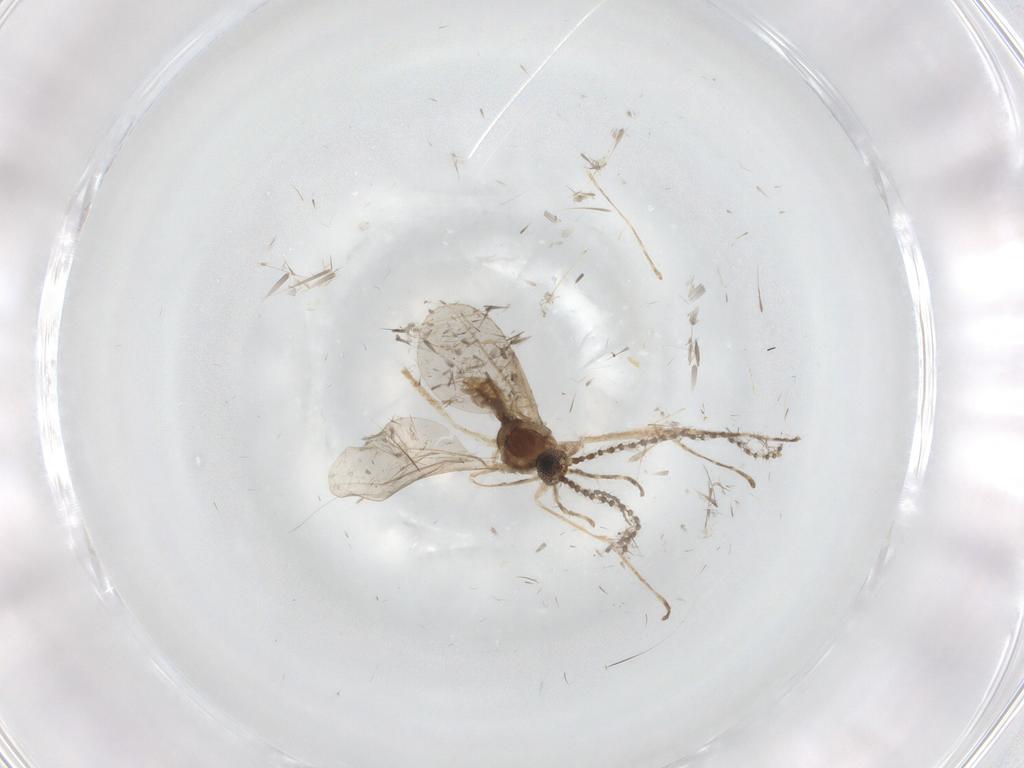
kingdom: Animalia
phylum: Arthropoda
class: Insecta
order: Diptera
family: Cecidomyiidae
